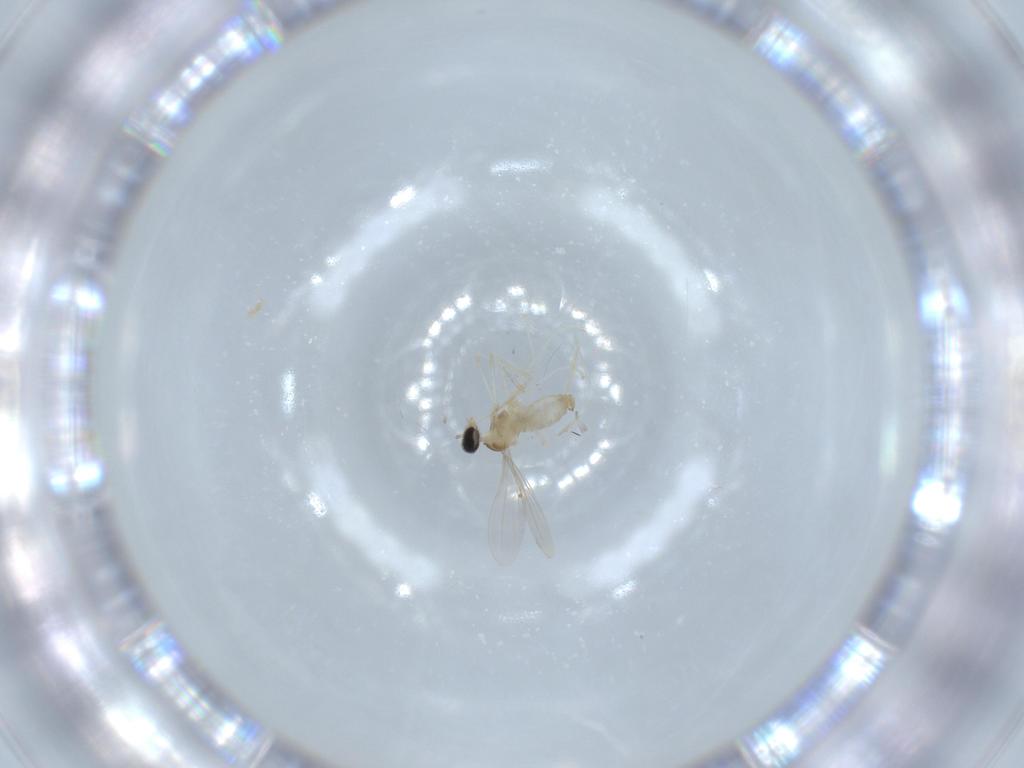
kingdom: Animalia
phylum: Arthropoda
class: Insecta
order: Diptera
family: Cecidomyiidae
